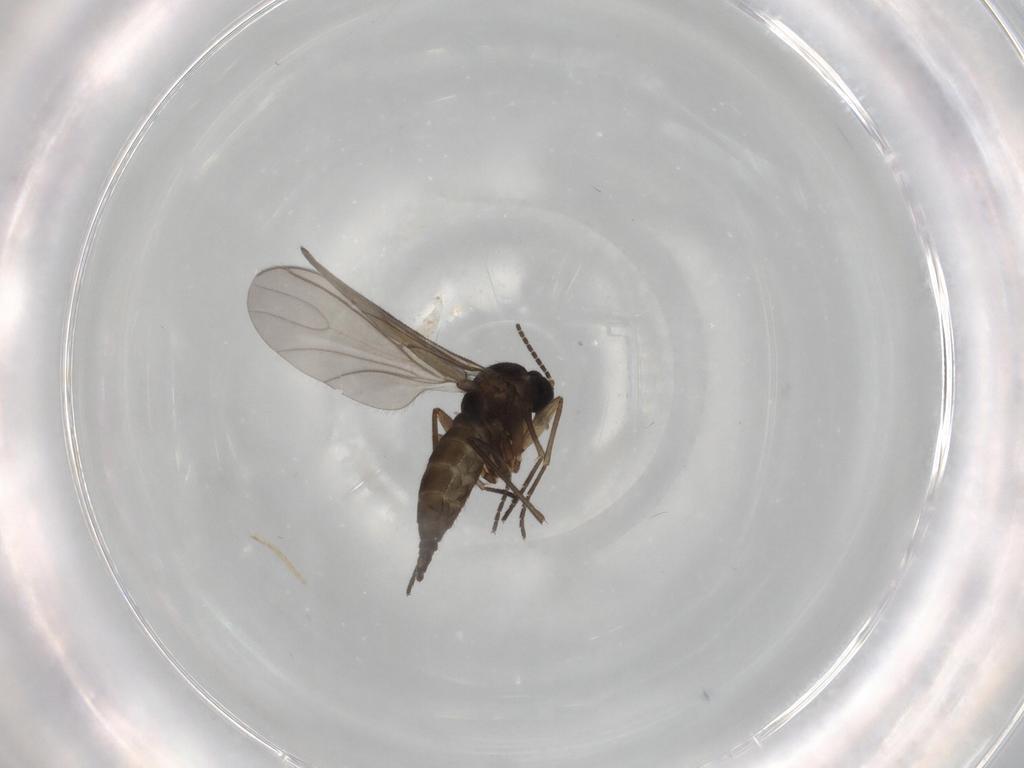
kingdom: Animalia
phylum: Arthropoda
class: Insecta
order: Diptera
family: Sciaridae
